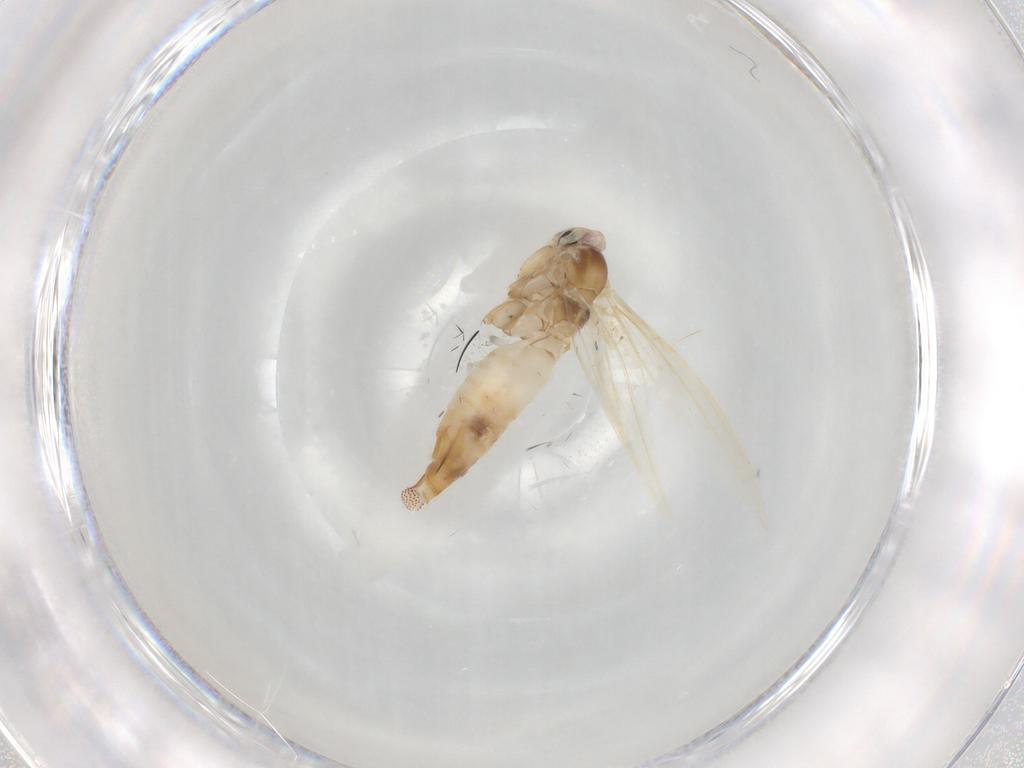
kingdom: Animalia
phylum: Arthropoda
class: Insecta
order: Lepidoptera
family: Bucculatricidae
